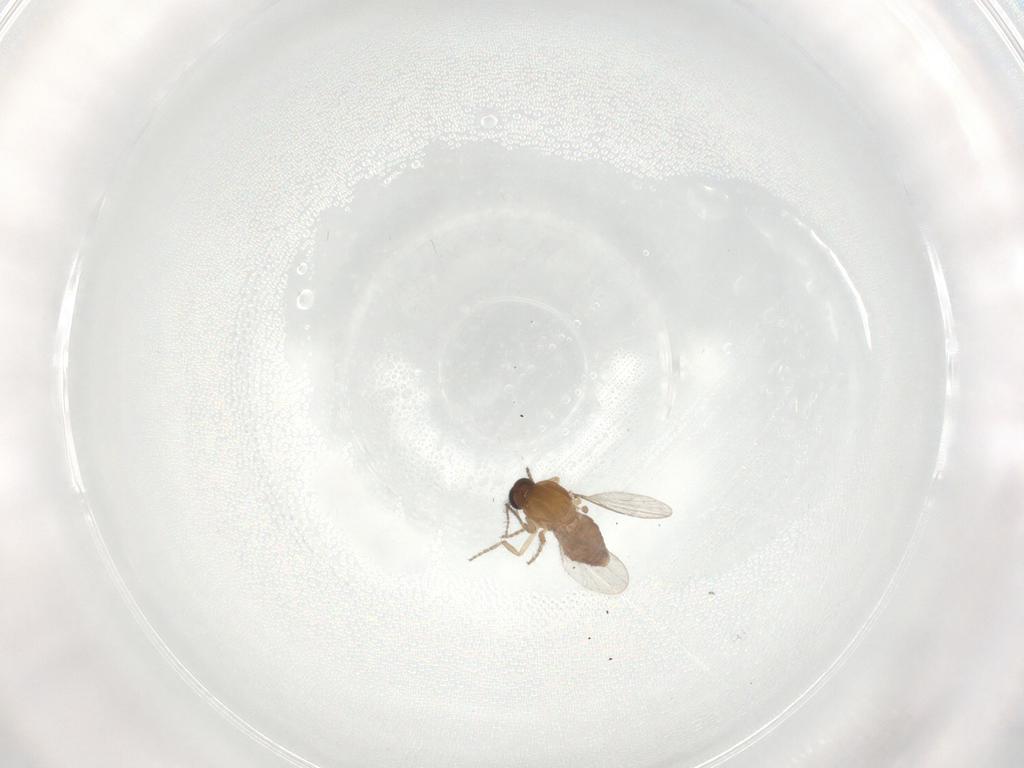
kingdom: Animalia
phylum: Arthropoda
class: Insecta
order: Diptera
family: Ceratopogonidae
